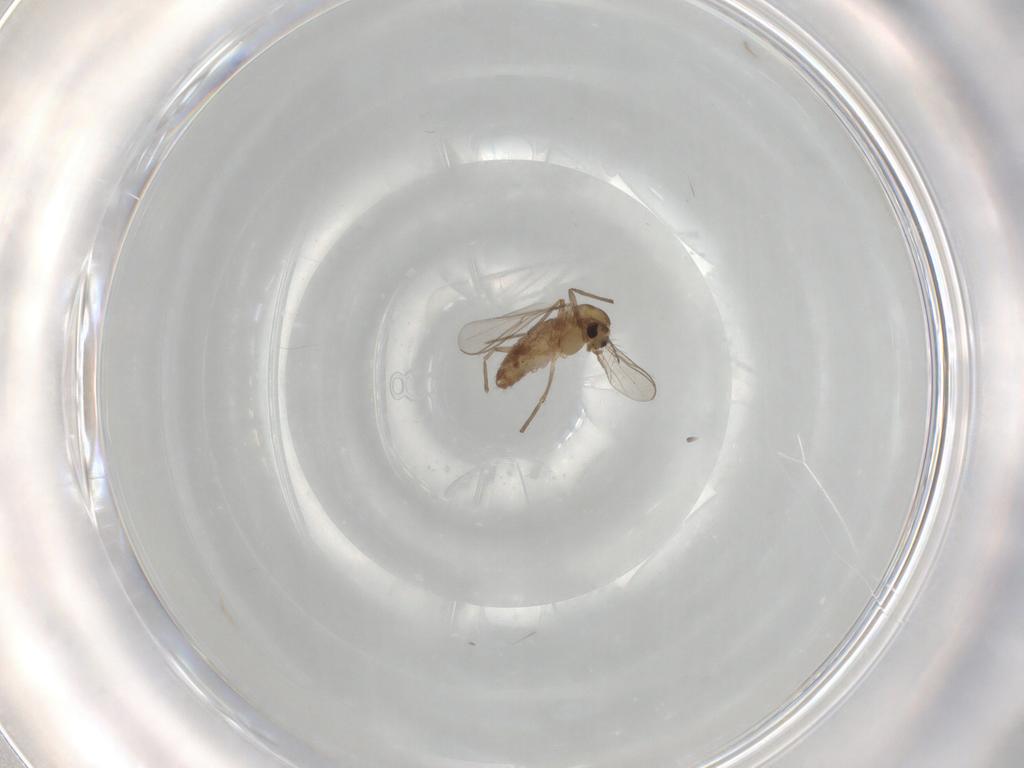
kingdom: Animalia
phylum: Arthropoda
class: Insecta
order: Diptera
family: Chironomidae
